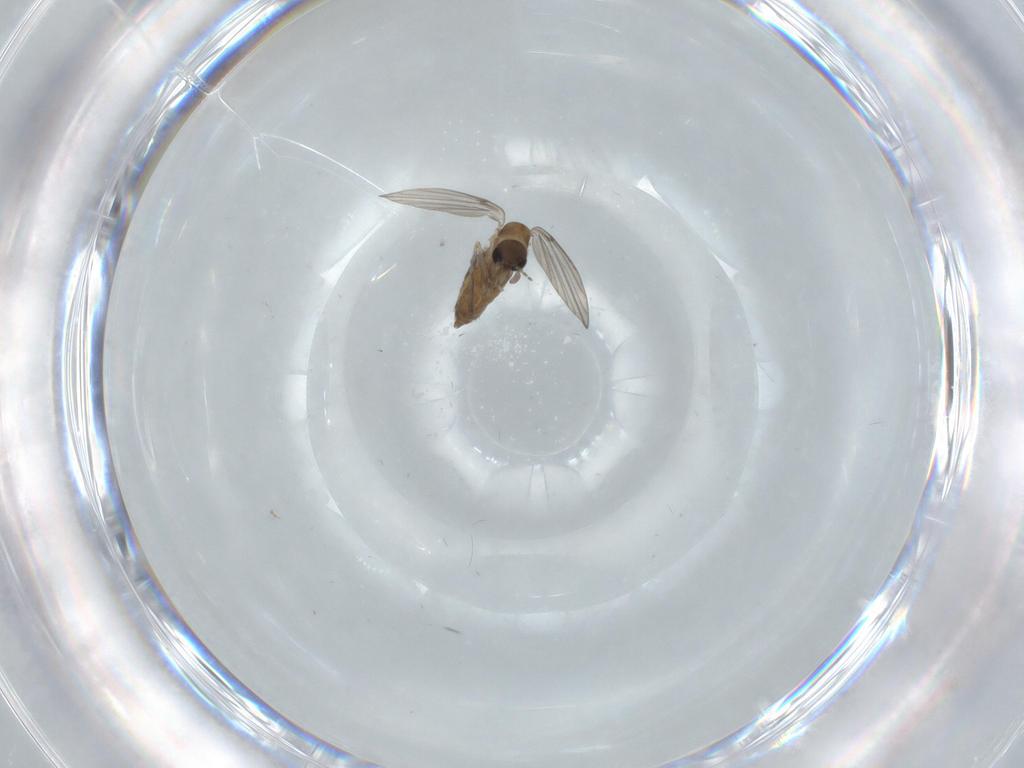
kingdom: Animalia
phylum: Arthropoda
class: Insecta
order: Diptera
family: Psychodidae
